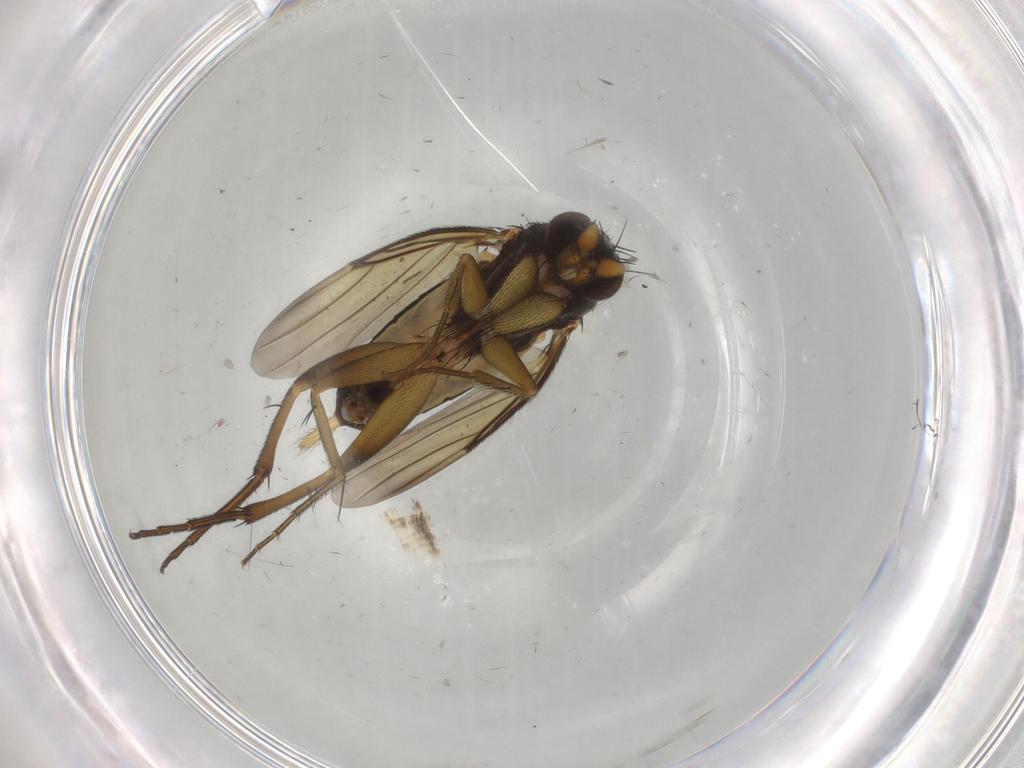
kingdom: Animalia
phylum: Arthropoda
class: Insecta
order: Diptera
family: Phoridae
